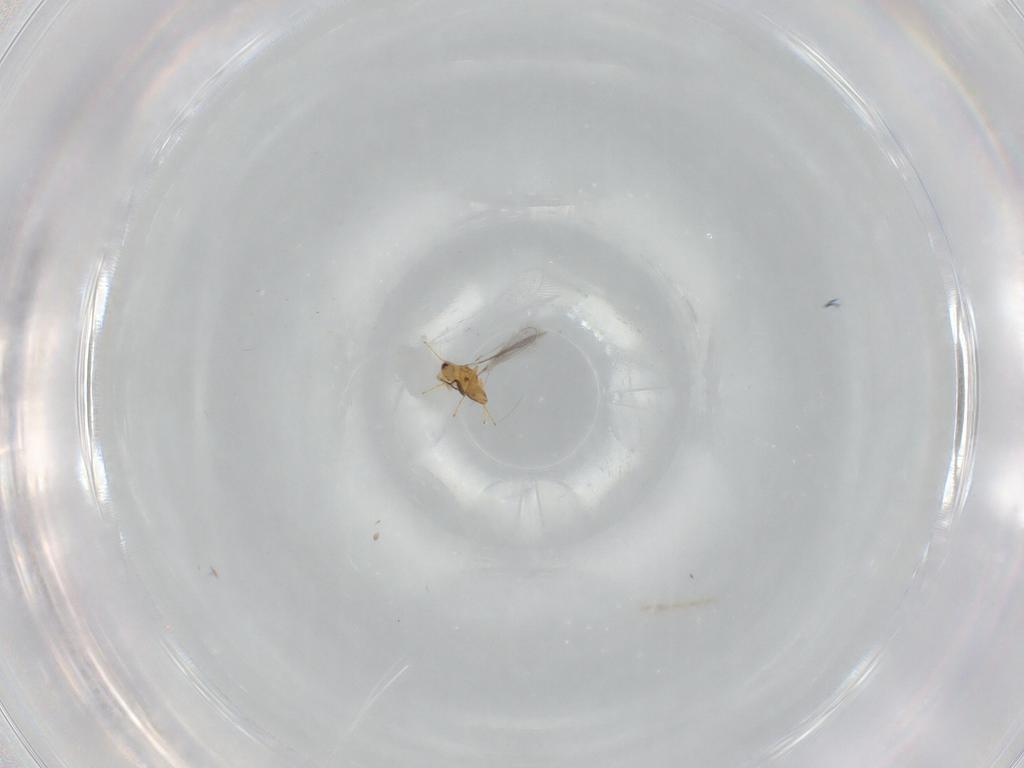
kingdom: Animalia
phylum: Arthropoda
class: Insecta
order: Hymenoptera
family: Mymaridae
